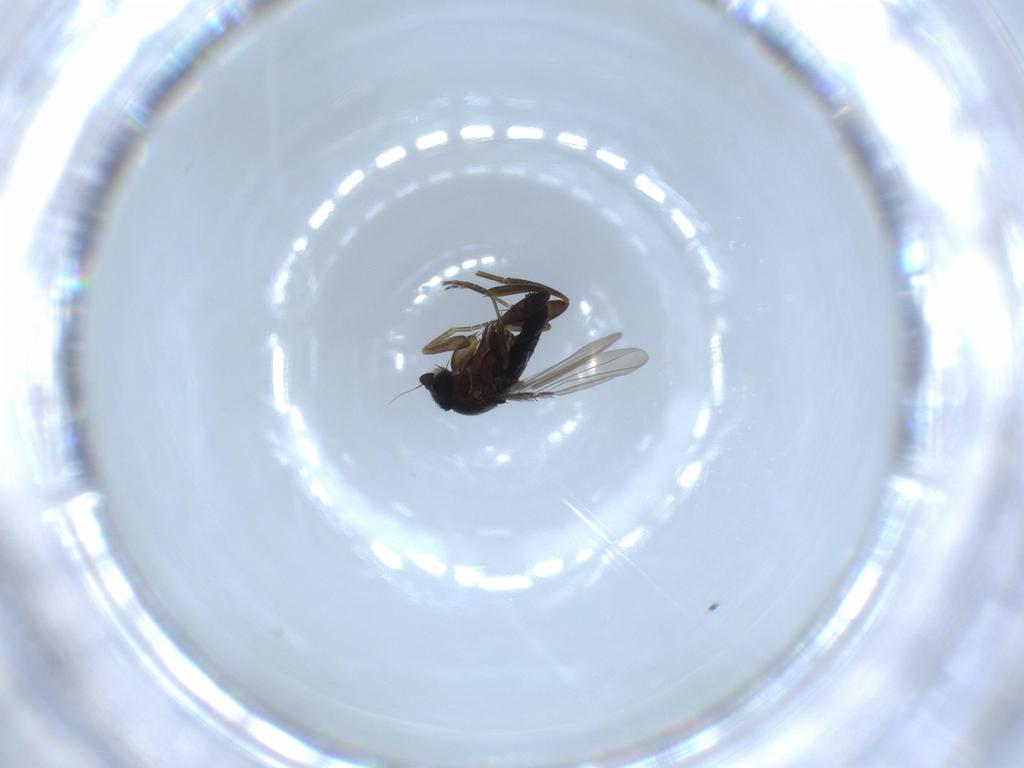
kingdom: Animalia
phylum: Arthropoda
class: Insecta
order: Diptera
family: Phoridae
